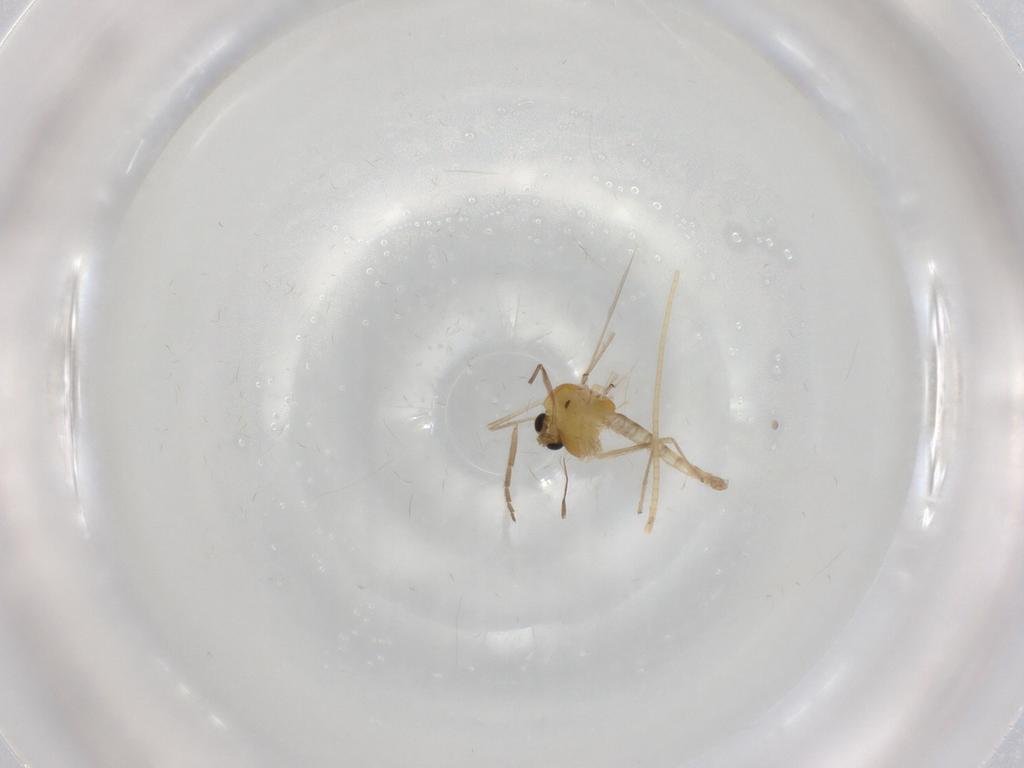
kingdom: Animalia
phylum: Arthropoda
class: Insecta
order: Diptera
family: Chironomidae
